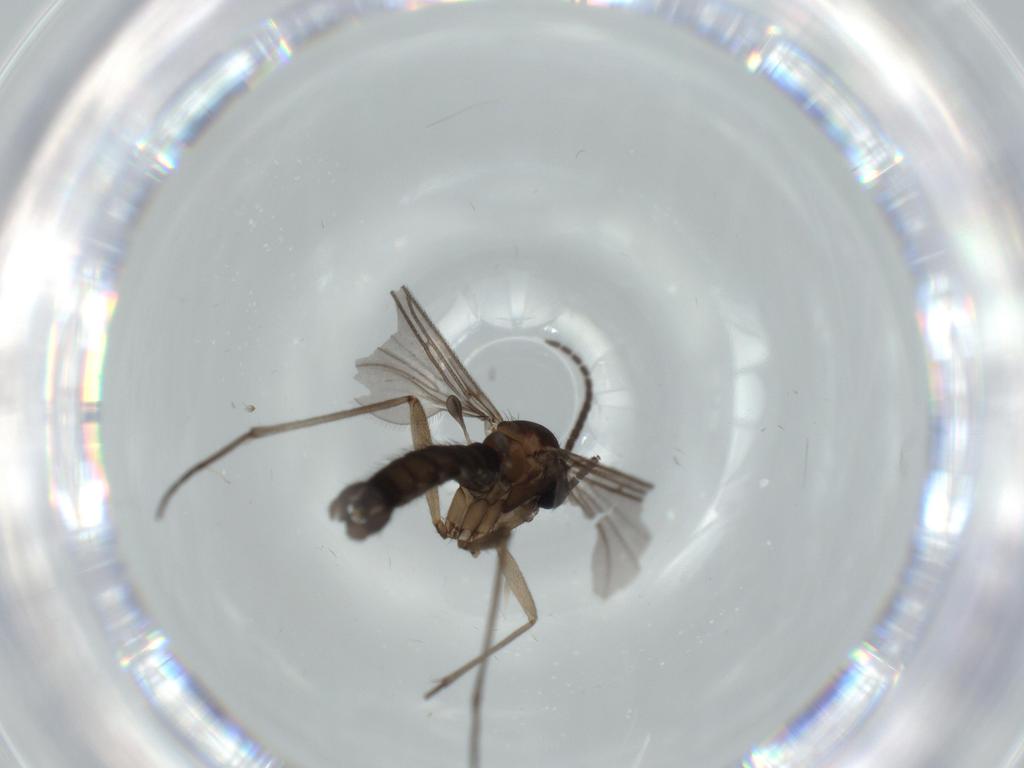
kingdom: Animalia
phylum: Arthropoda
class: Insecta
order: Diptera
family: Sciaridae
